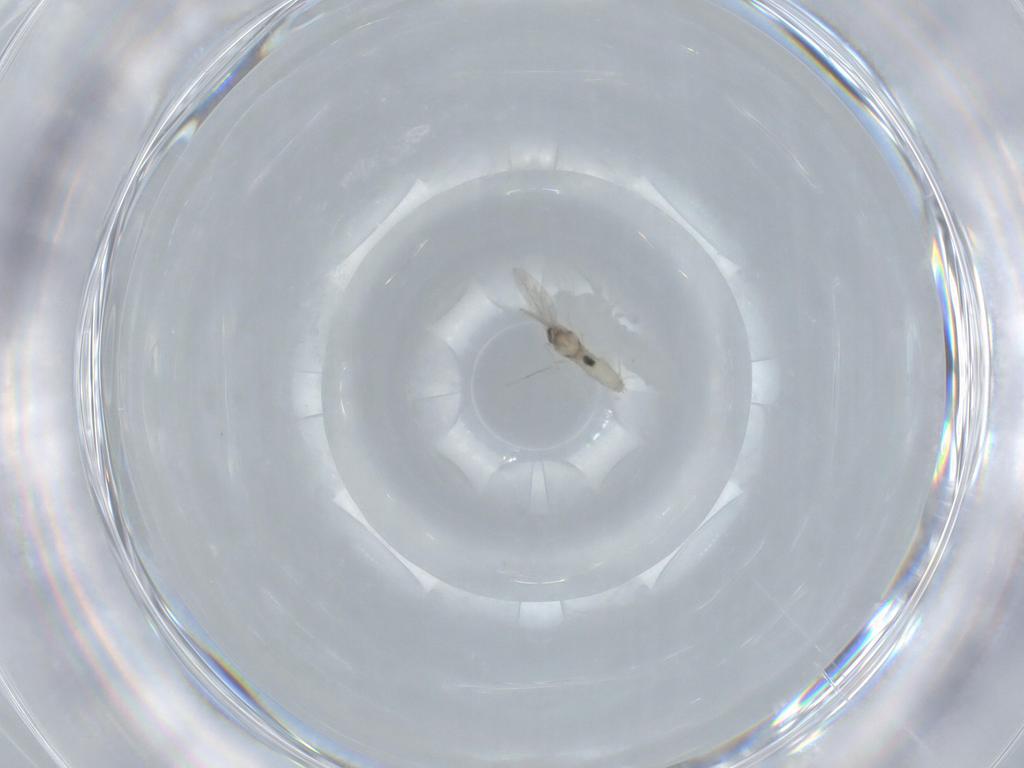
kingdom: Animalia
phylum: Arthropoda
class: Insecta
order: Diptera
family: Cecidomyiidae
